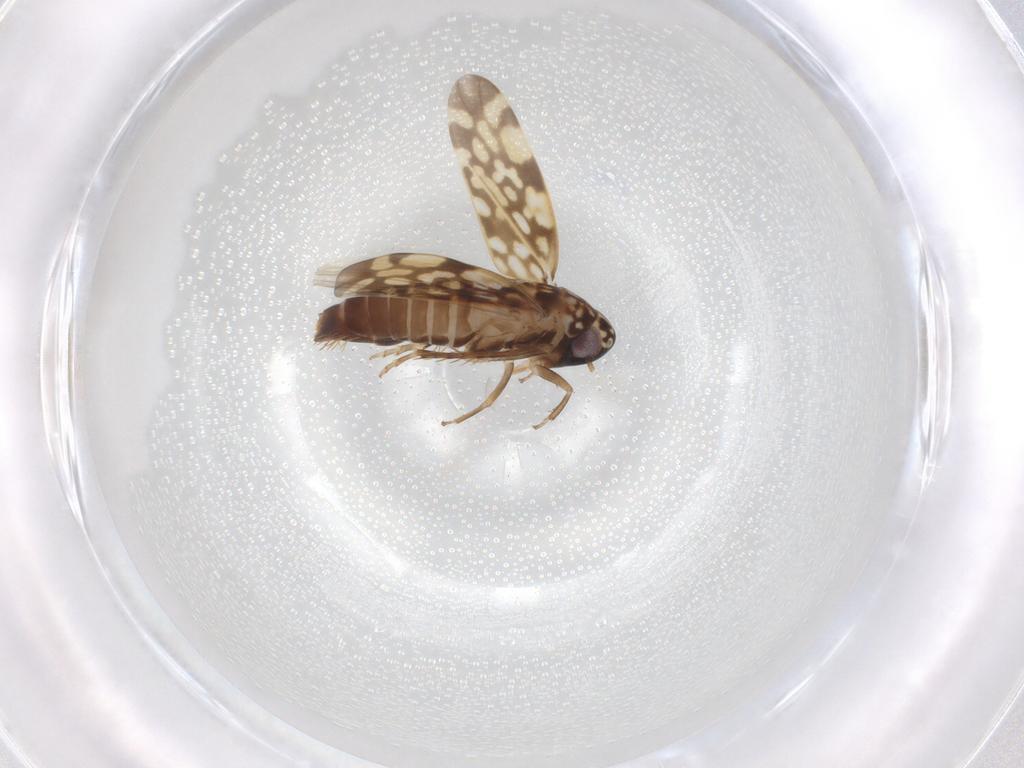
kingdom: Animalia
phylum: Arthropoda
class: Insecta
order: Hemiptera
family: Cicadellidae
